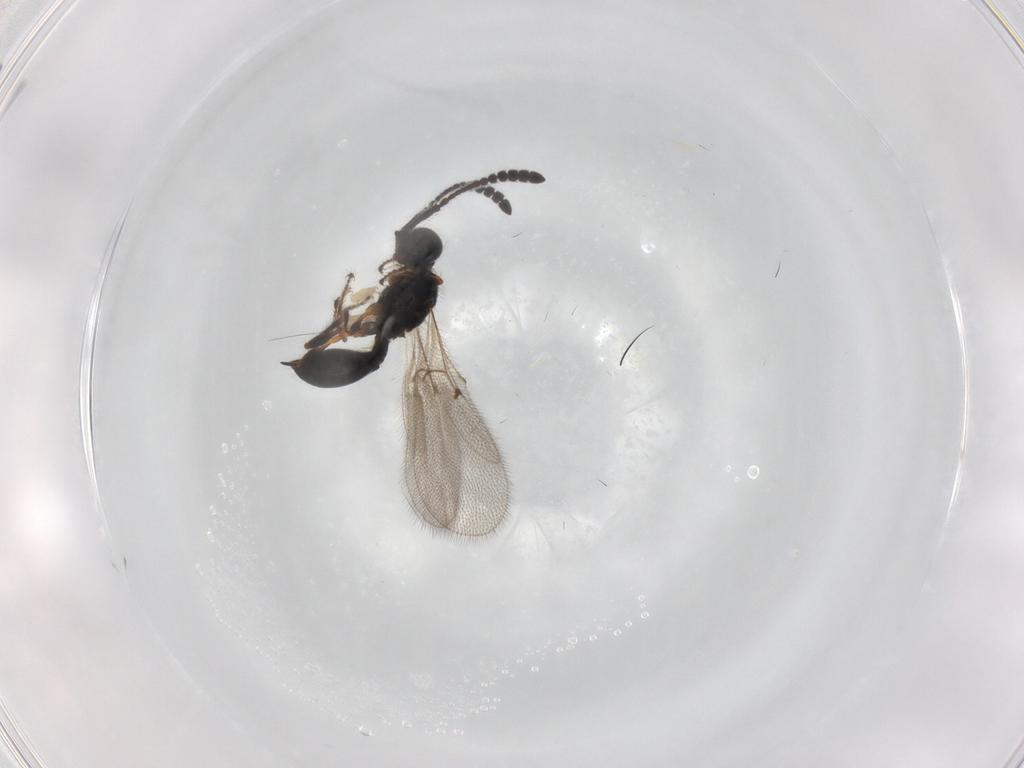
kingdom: Animalia
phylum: Arthropoda
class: Insecta
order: Hymenoptera
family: Diapriidae
